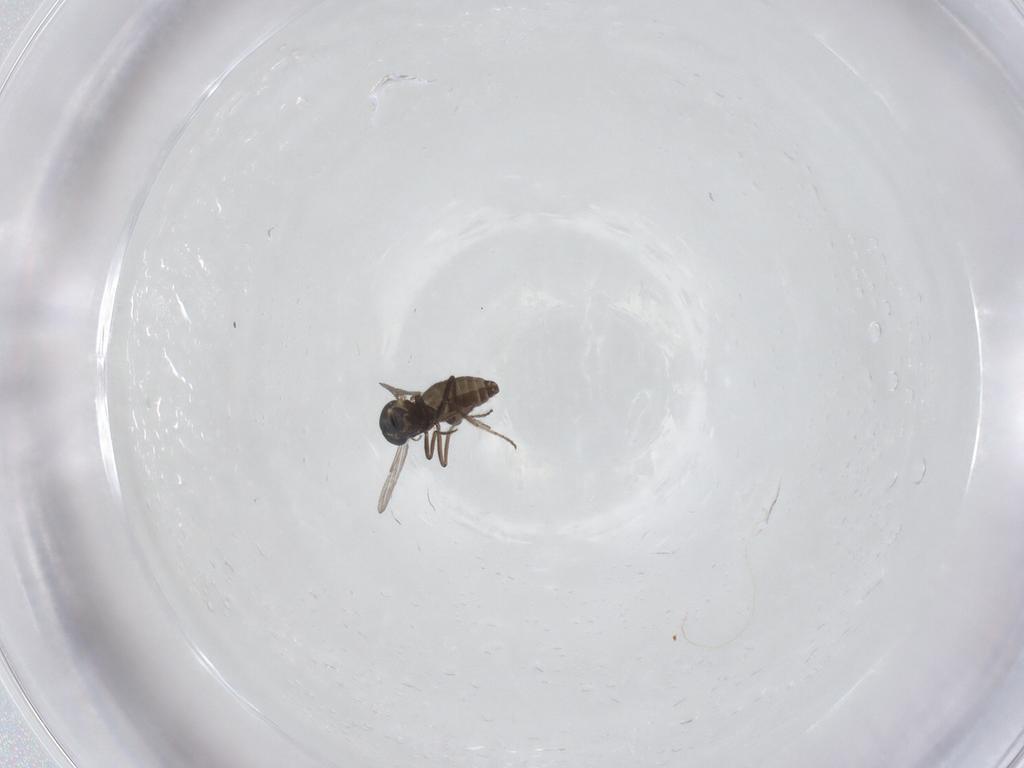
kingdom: Animalia
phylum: Arthropoda
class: Insecta
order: Diptera
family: Ceratopogonidae
